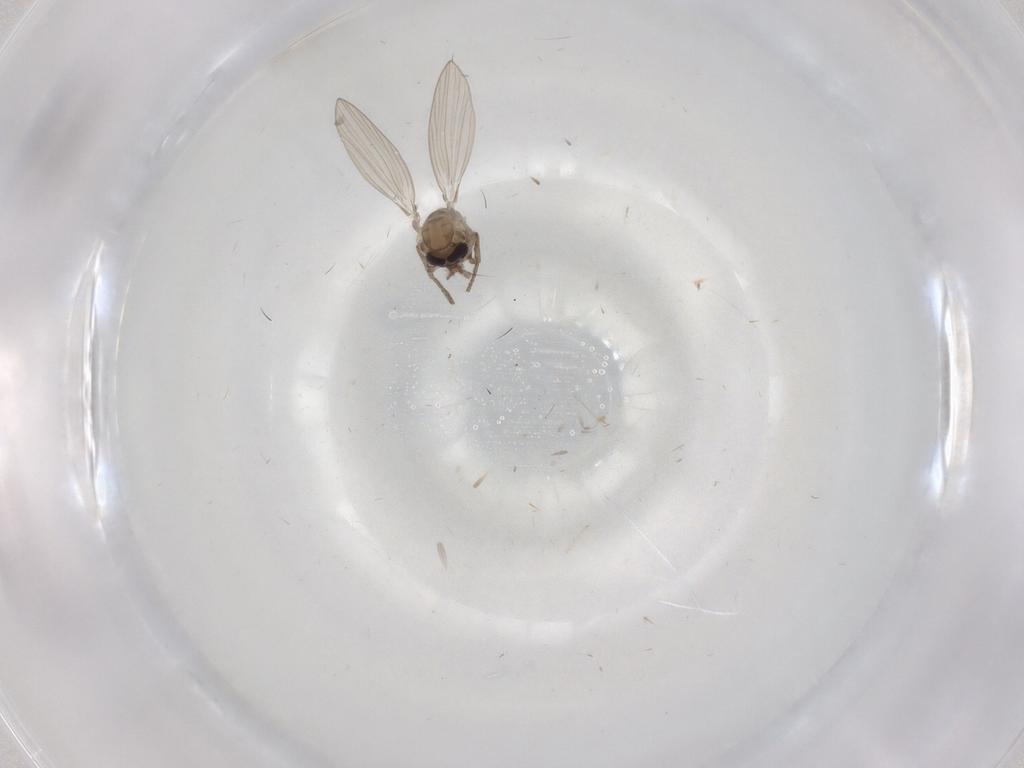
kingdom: Animalia
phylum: Arthropoda
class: Insecta
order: Diptera
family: Psychodidae
